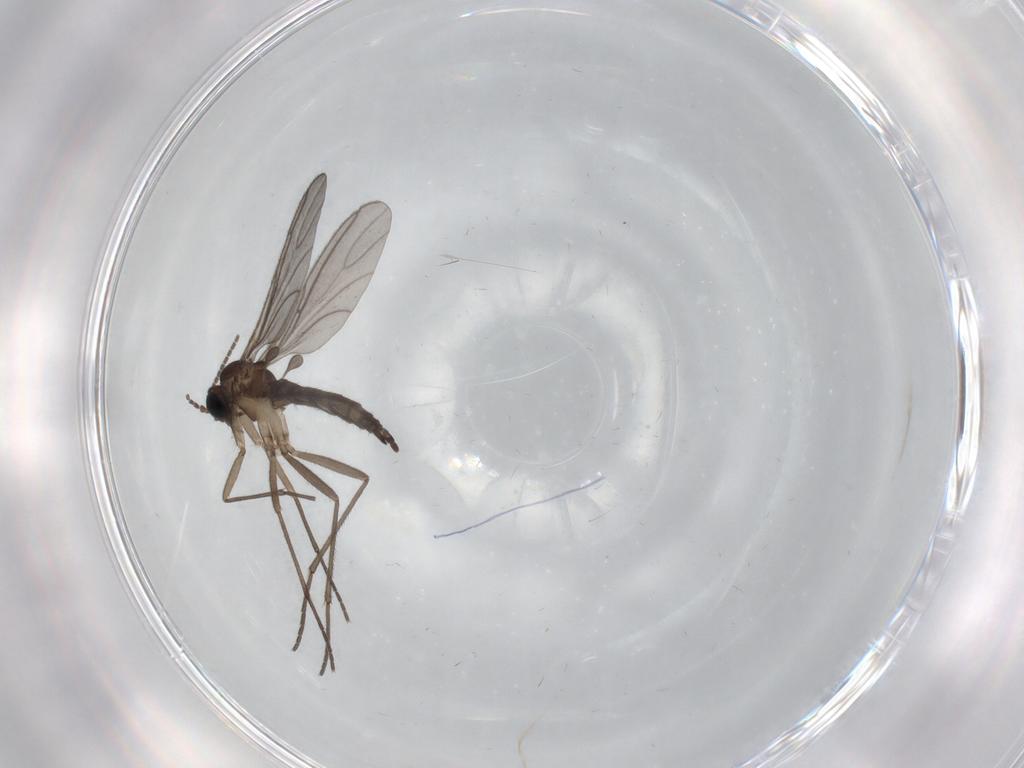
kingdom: Animalia
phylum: Arthropoda
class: Insecta
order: Diptera
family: Sciaridae
